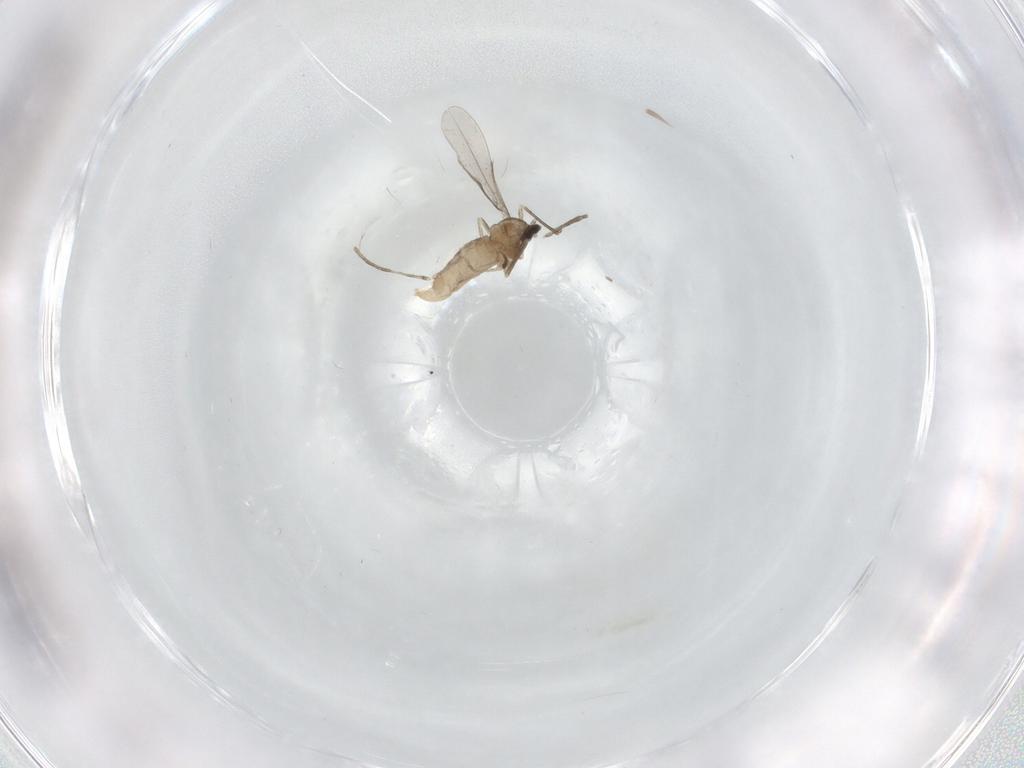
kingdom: Animalia
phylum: Arthropoda
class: Insecta
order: Diptera
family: Cecidomyiidae
